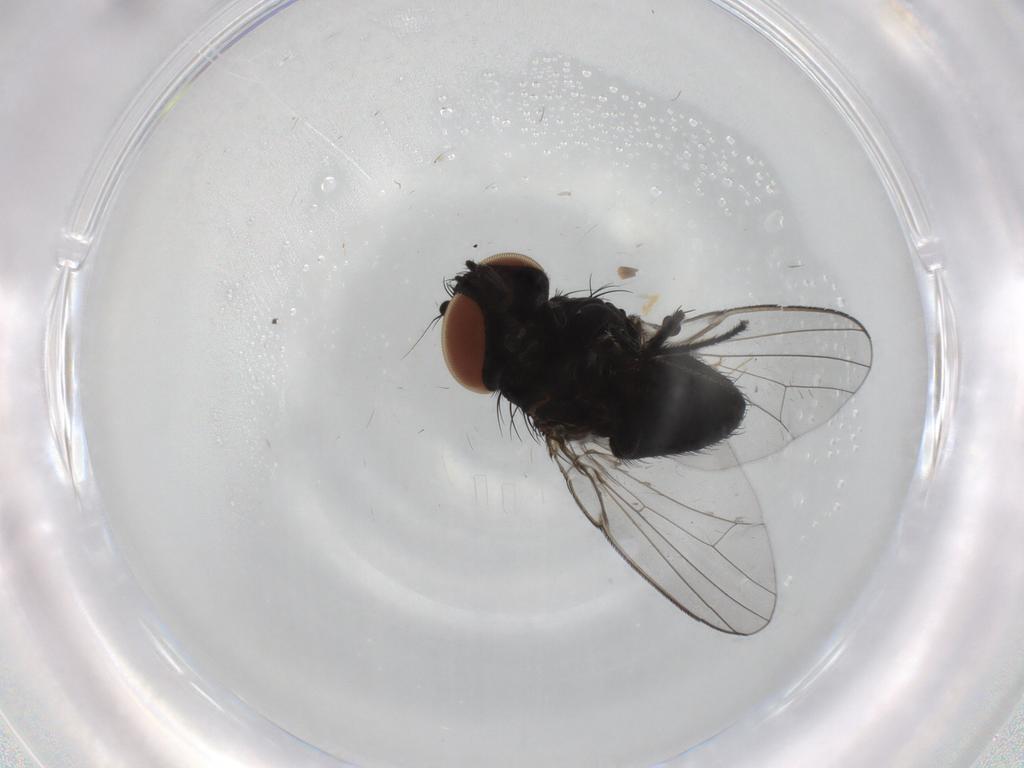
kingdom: Animalia
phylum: Arthropoda
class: Insecta
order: Diptera
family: Milichiidae
